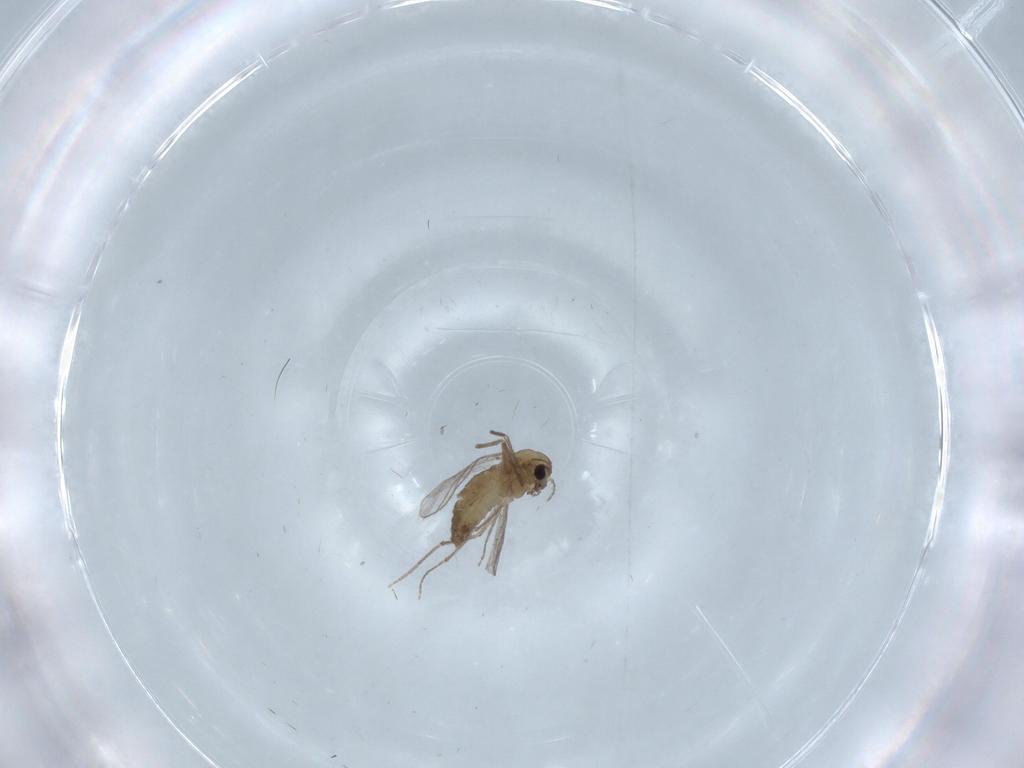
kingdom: Animalia
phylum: Arthropoda
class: Insecta
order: Diptera
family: Chironomidae
